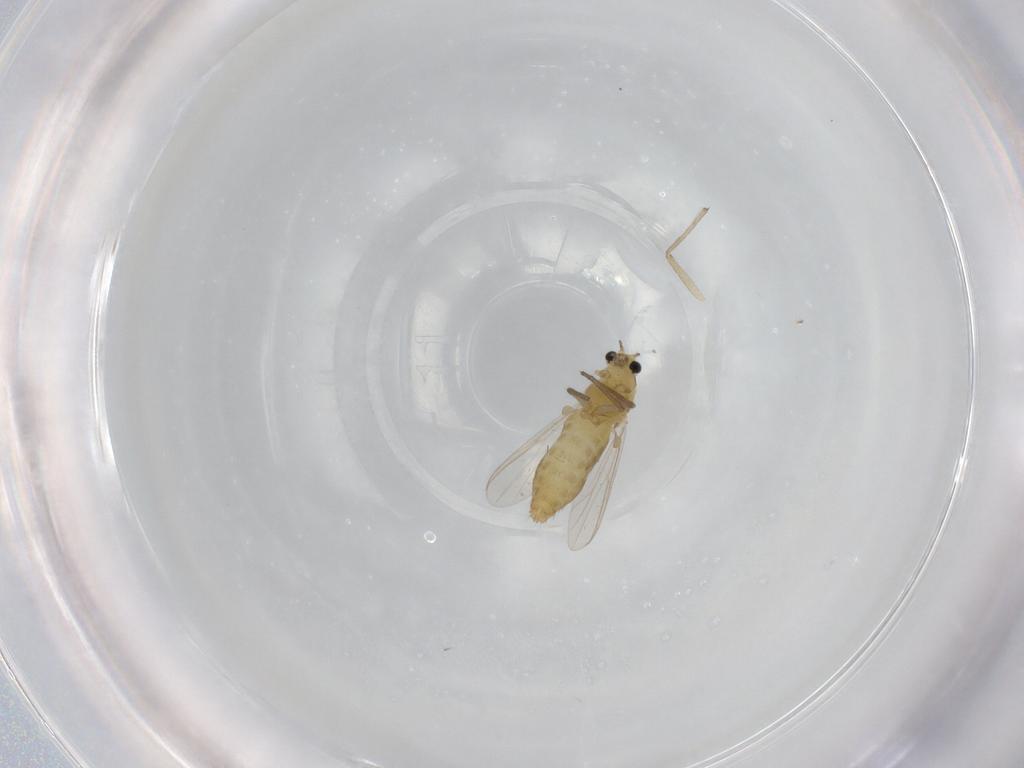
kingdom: Animalia
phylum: Arthropoda
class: Insecta
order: Diptera
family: Chironomidae
